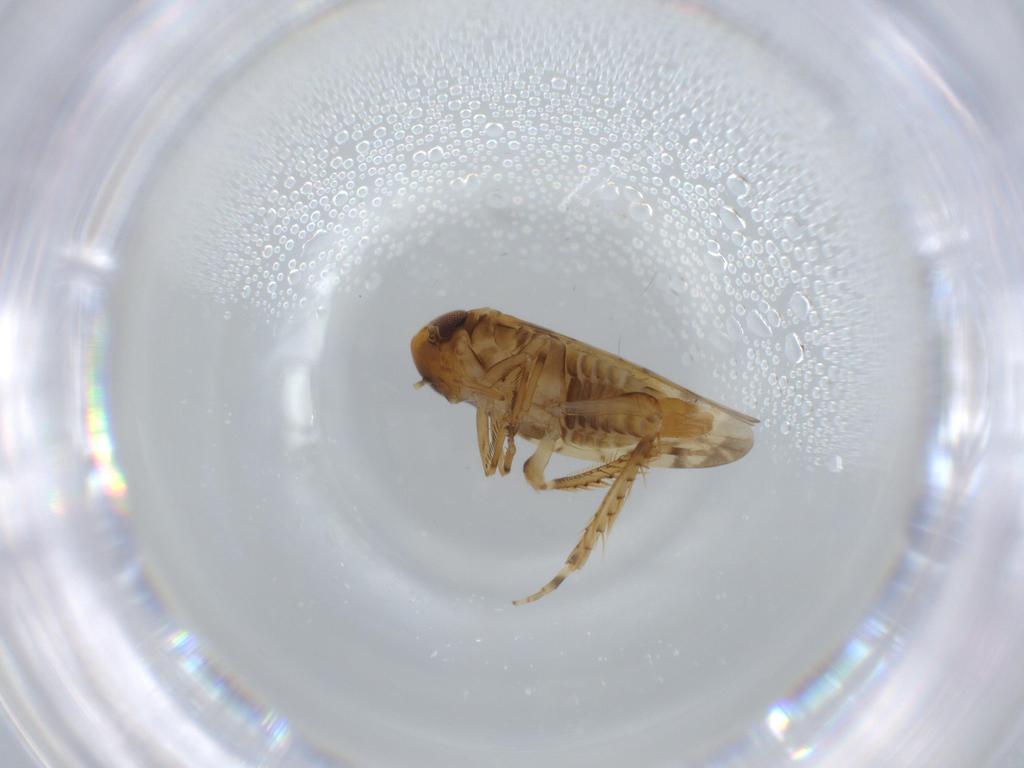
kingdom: Animalia
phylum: Arthropoda
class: Insecta
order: Hemiptera
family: Cicadellidae
